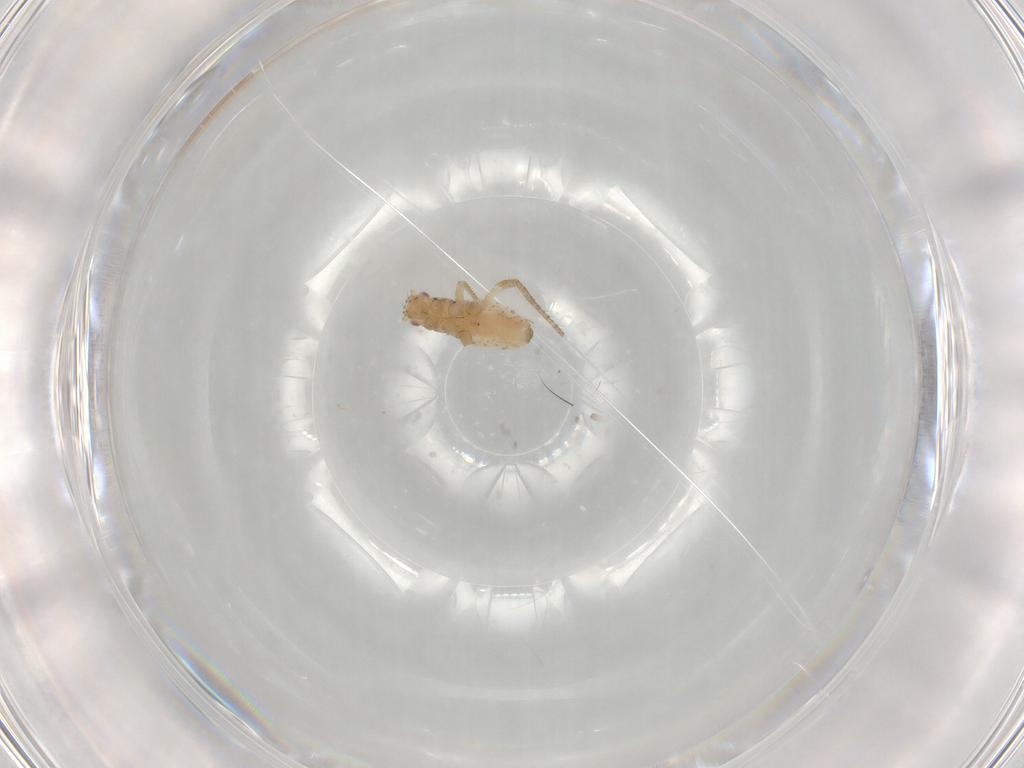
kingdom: Animalia
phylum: Arthropoda
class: Insecta
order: Hemiptera
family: Aphididae
